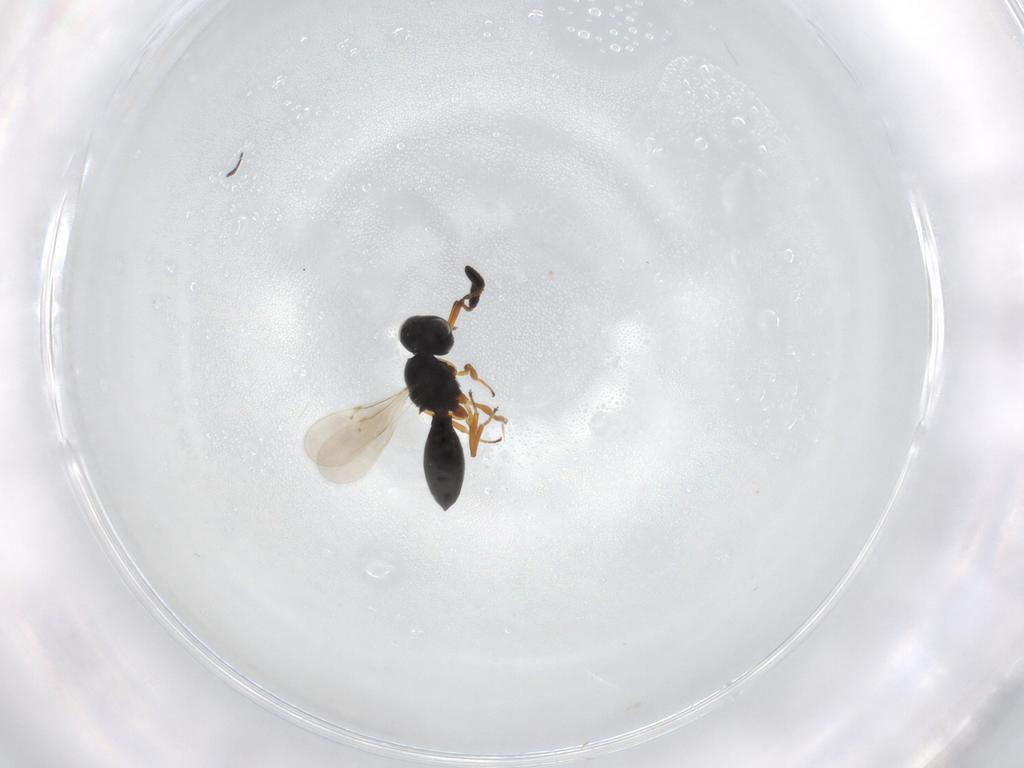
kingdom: Animalia
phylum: Arthropoda
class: Insecta
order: Hymenoptera
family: Scelionidae
